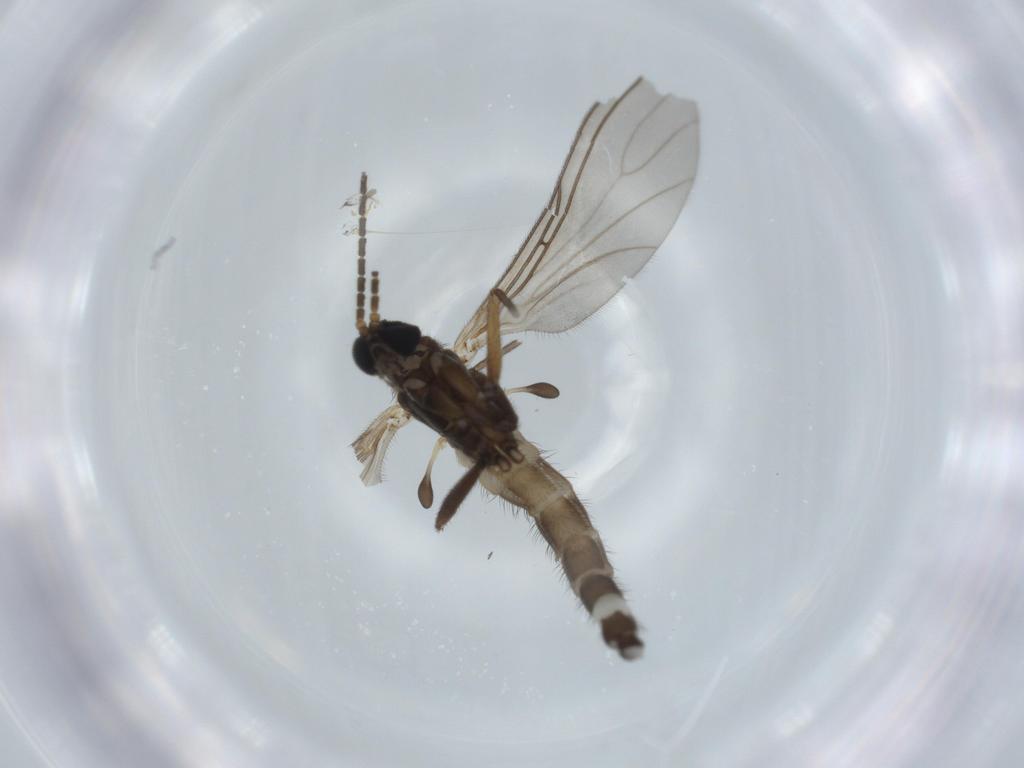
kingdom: Animalia
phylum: Arthropoda
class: Insecta
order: Diptera
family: Sciaridae
